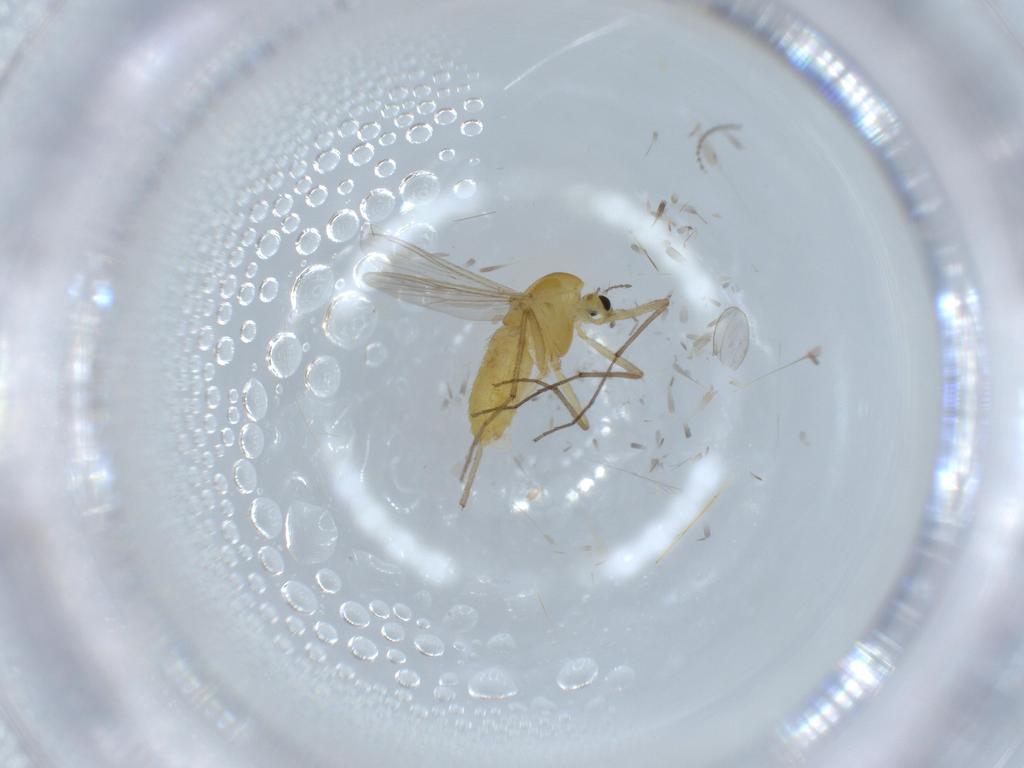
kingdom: Animalia
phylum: Arthropoda
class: Insecta
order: Diptera
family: Chironomidae
